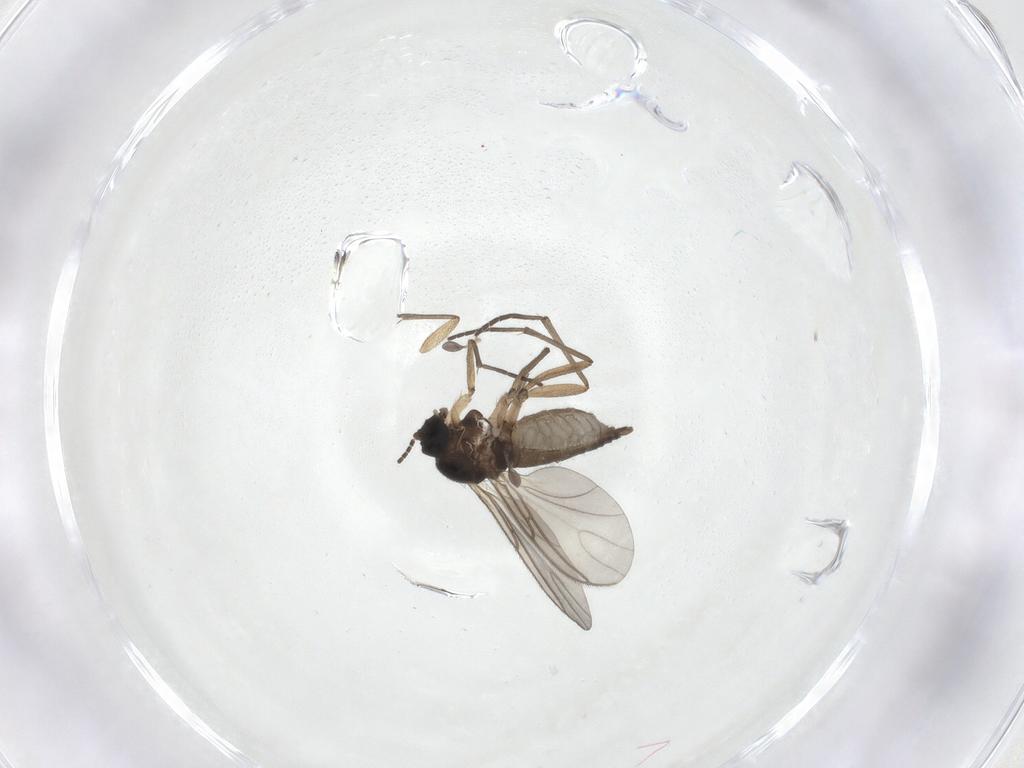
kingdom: Animalia
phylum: Arthropoda
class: Insecta
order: Diptera
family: Sciaridae
